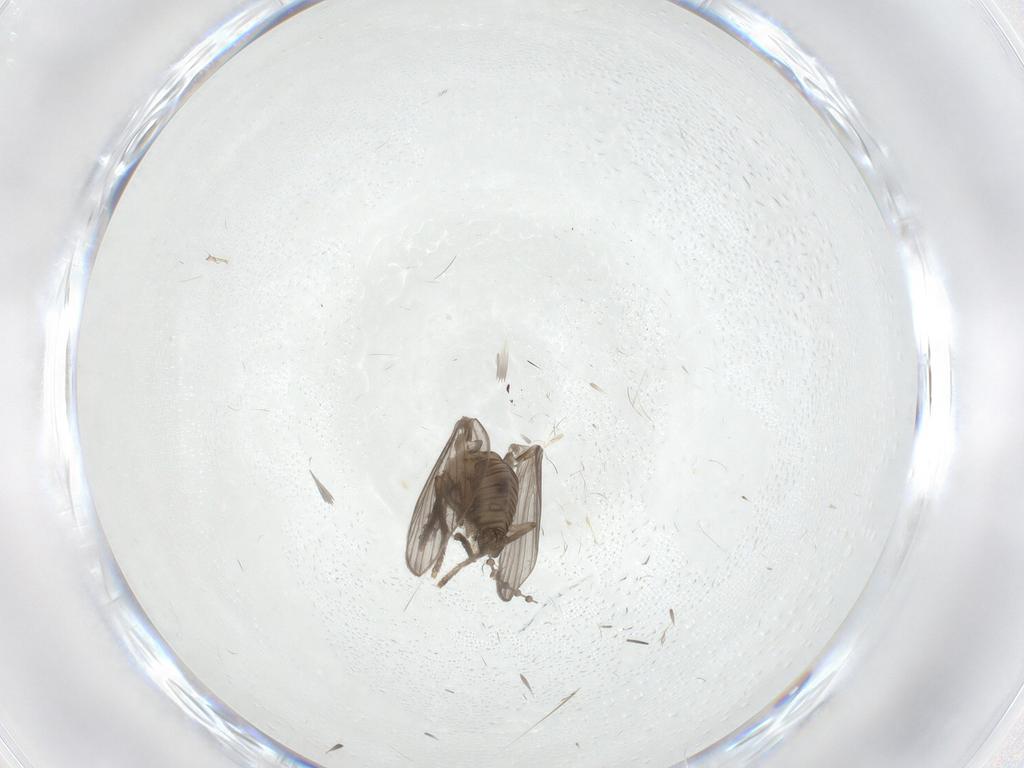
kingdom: Animalia
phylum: Arthropoda
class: Insecta
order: Diptera
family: Psychodidae
